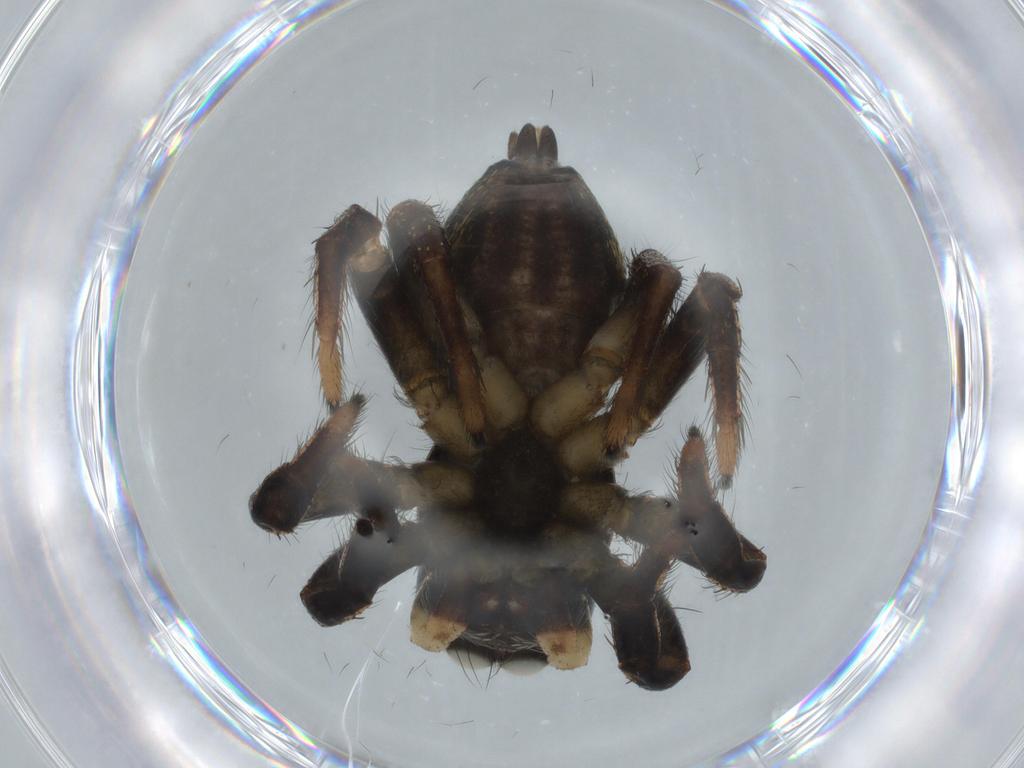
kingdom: Animalia
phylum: Arthropoda
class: Arachnida
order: Araneae
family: Salticidae
